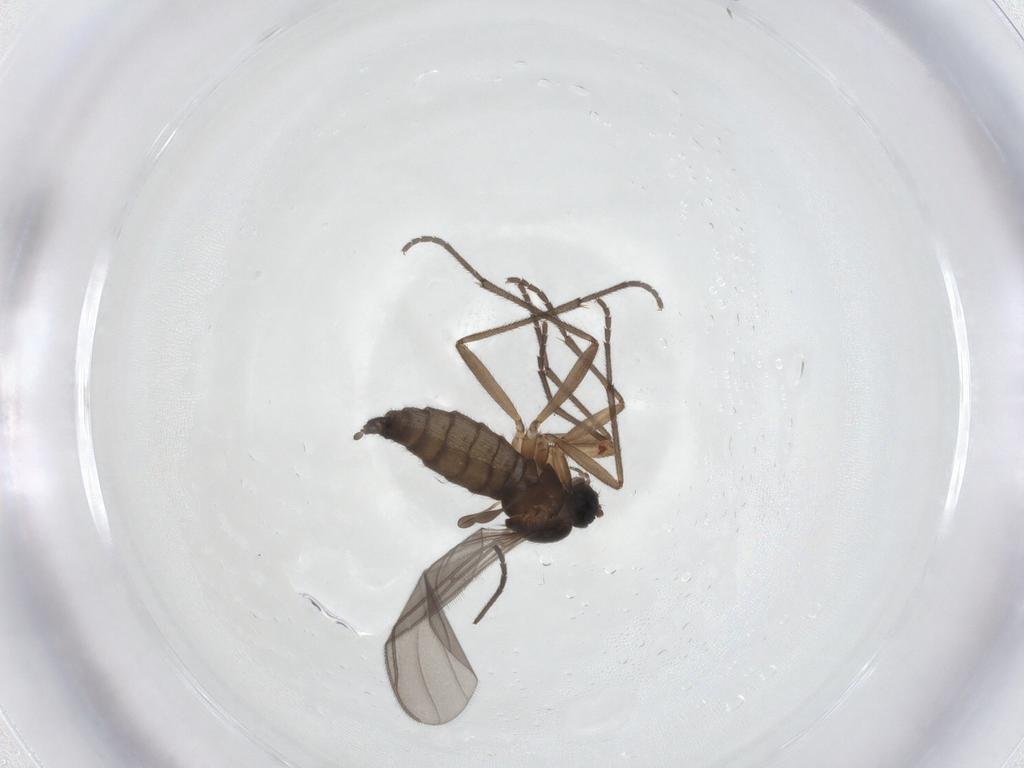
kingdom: Animalia
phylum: Arthropoda
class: Insecta
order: Diptera
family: Sciaridae
